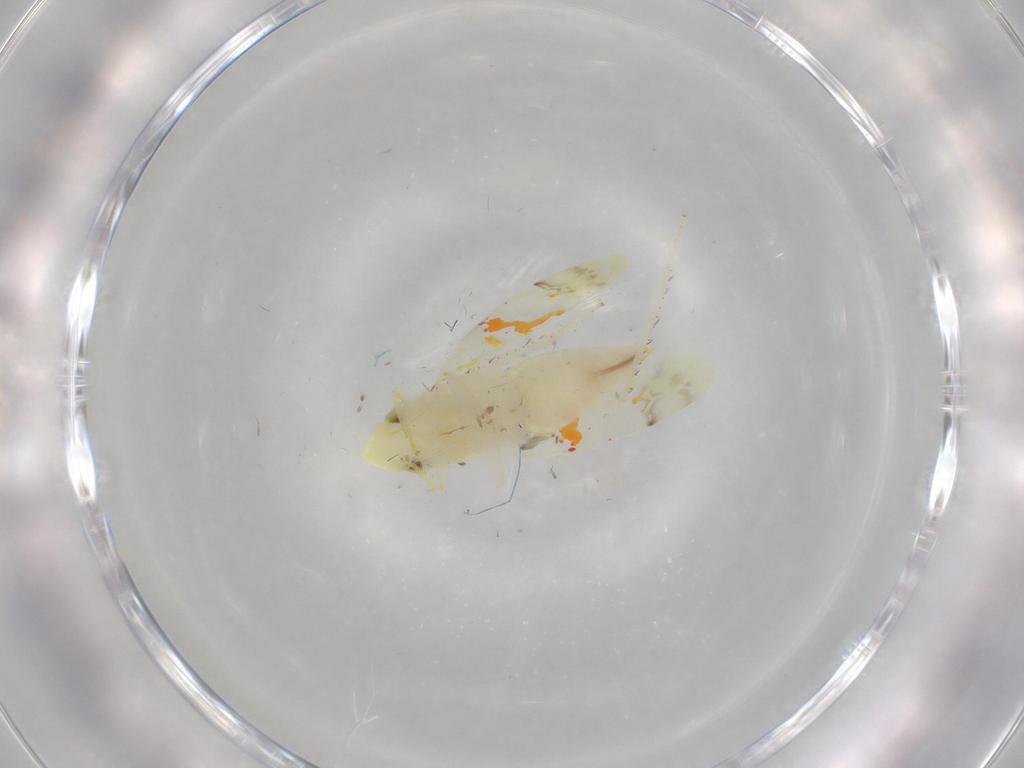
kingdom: Animalia
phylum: Arthropoda
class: Insecta
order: Hemiptera
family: Cicadellidae
